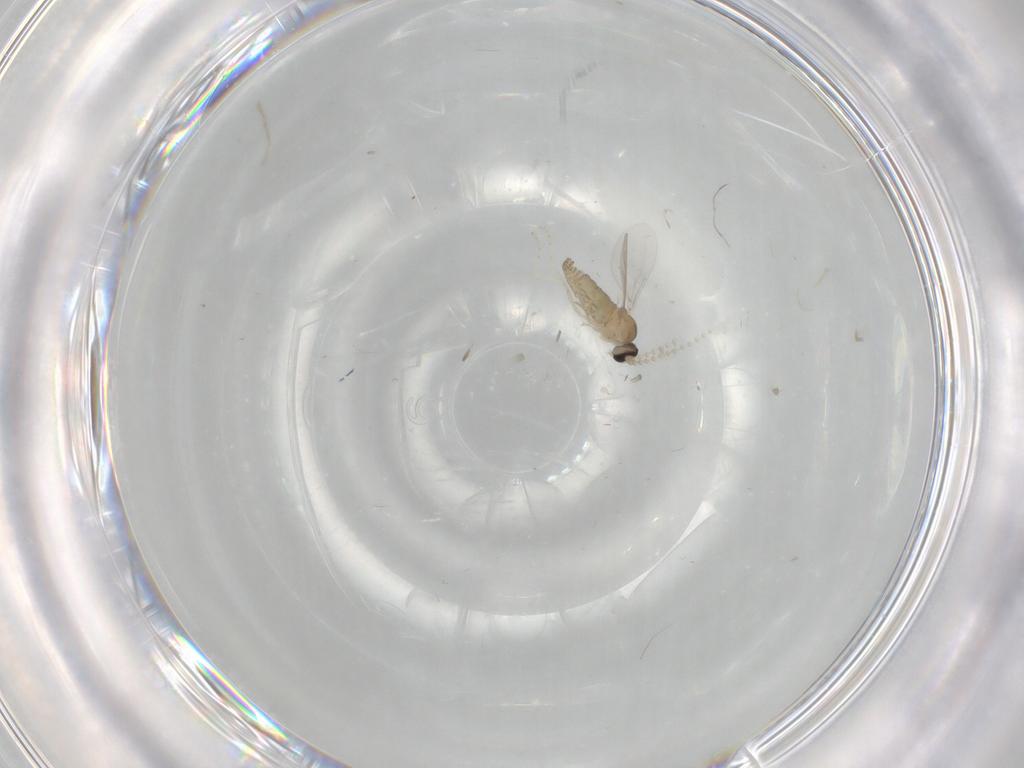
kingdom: Animalia
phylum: Arthropoda
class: Insecta
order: Diptera
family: Cecidomyiidae
